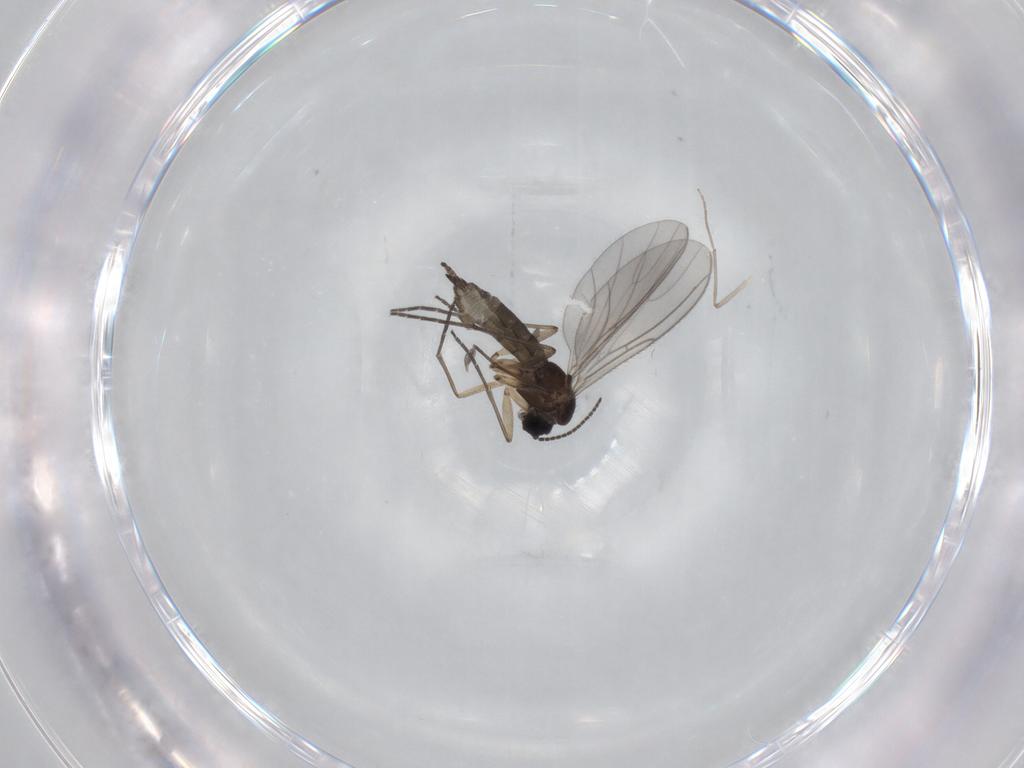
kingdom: Animalia
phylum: Arthropoda
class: Insecta
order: Diptera
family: Sciaridae
